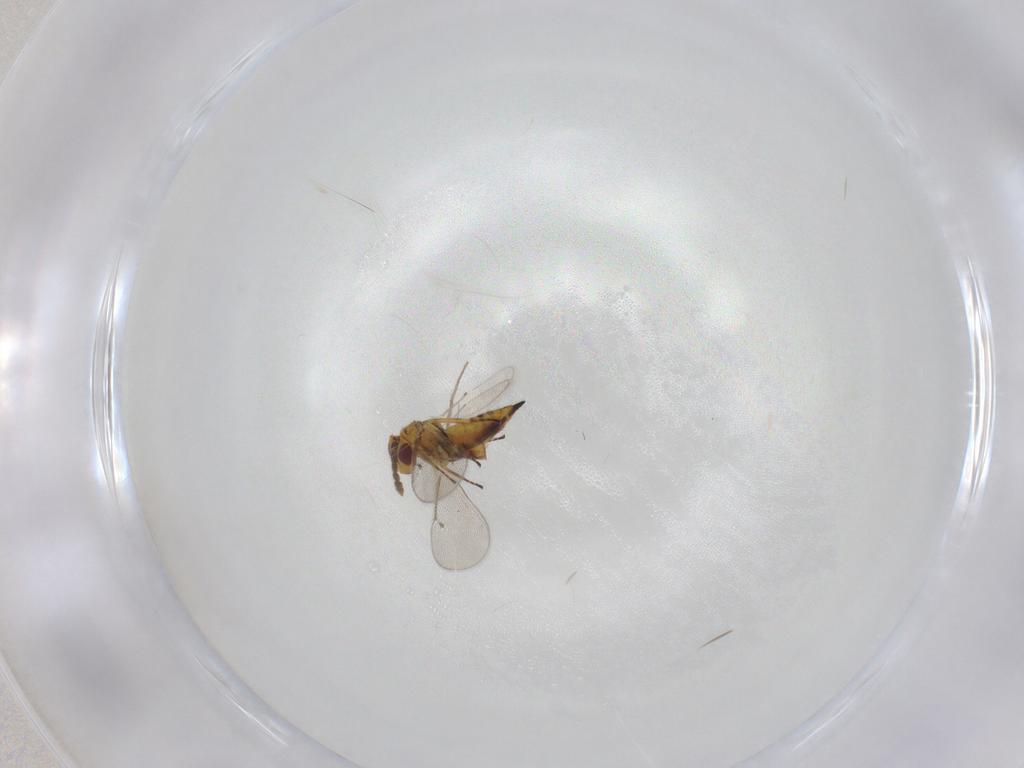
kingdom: Animalia
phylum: Arthropoda
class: Insecta
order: Hymenoptera
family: Eulophidae
